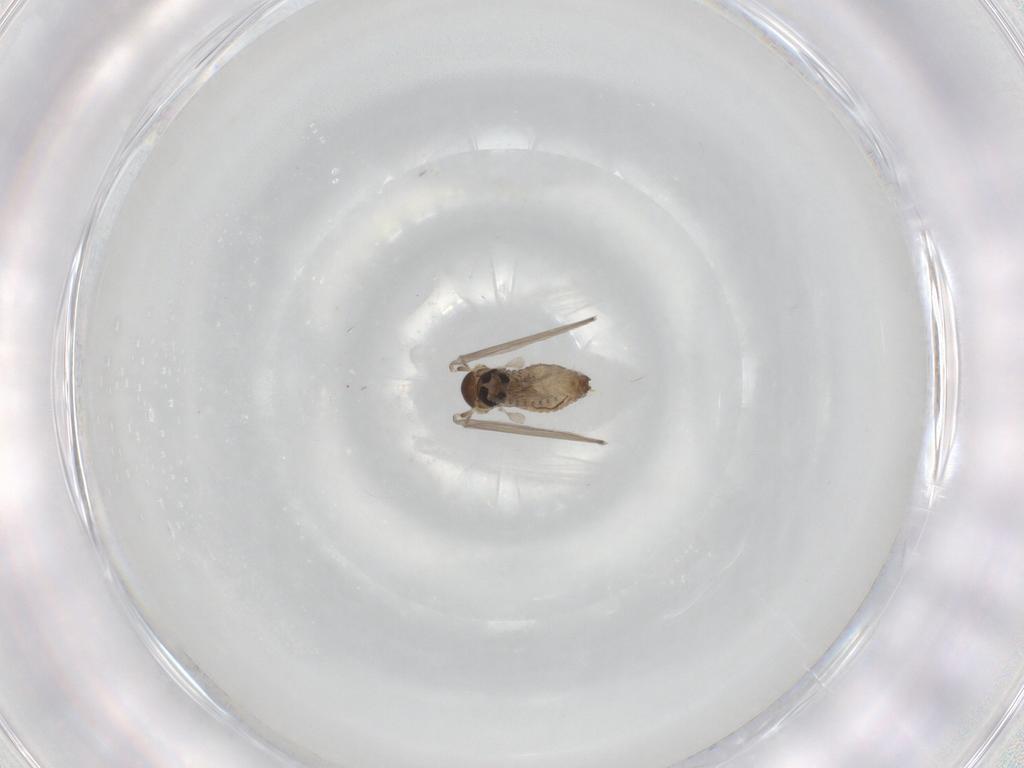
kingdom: Animalia
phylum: Arthropoda
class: Insecta
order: Diptera
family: Psychodidae
